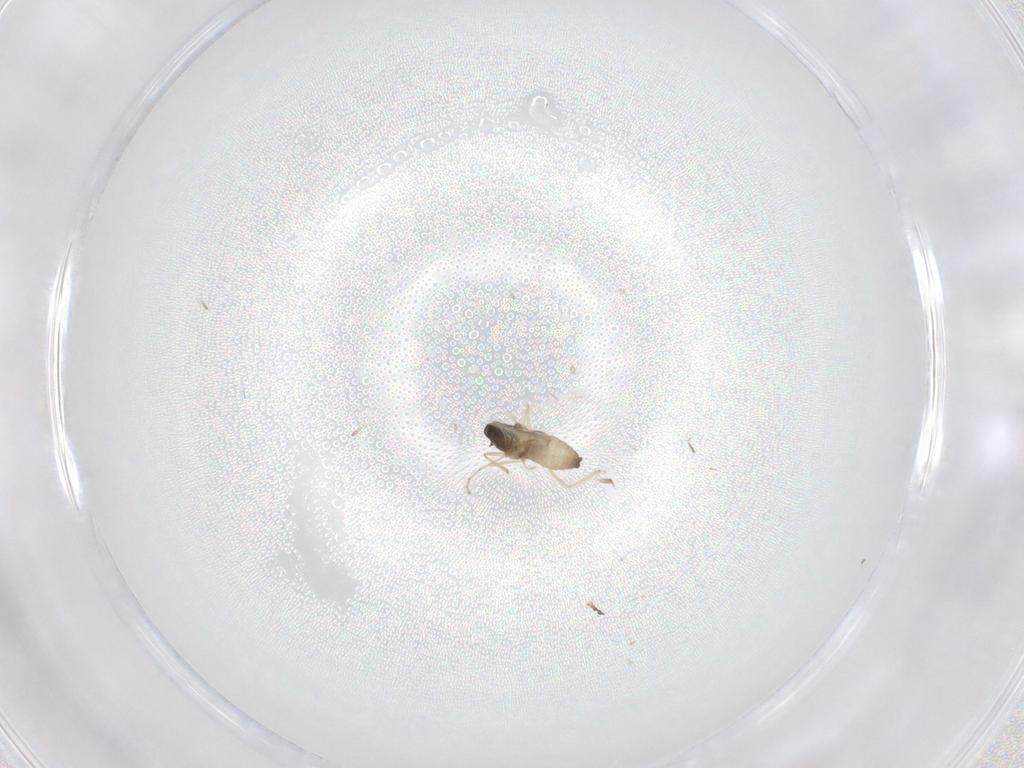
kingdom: Animalia
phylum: Arthropoda
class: Insecta
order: Diptera
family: Cecidomyiidae
